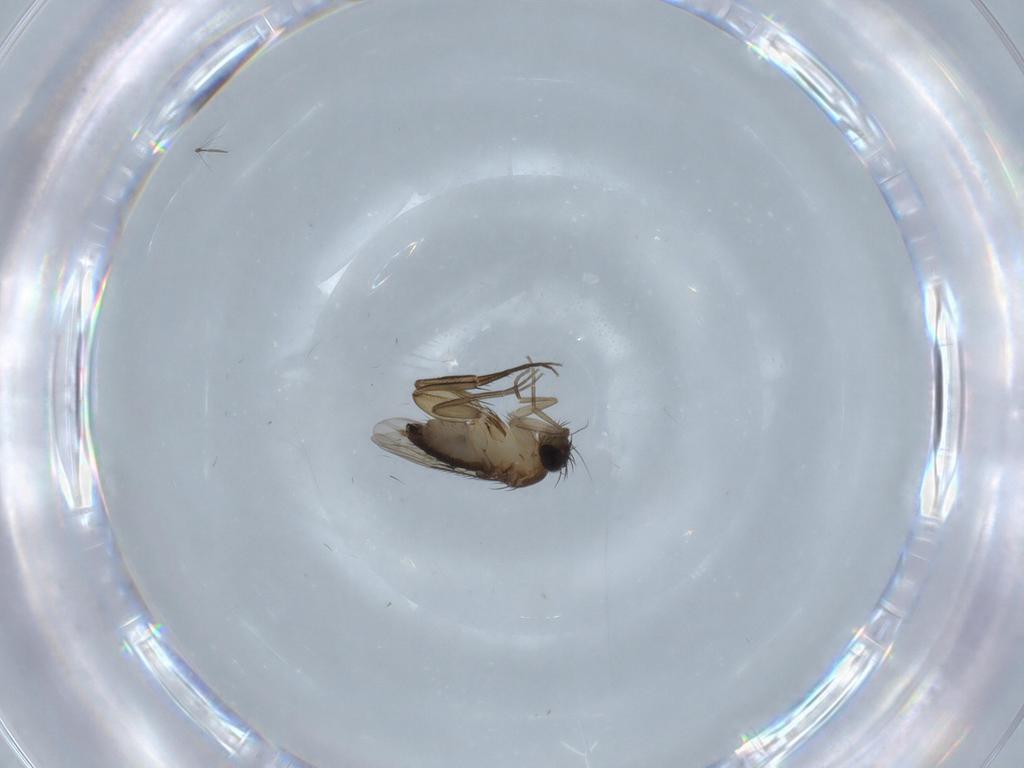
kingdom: Animalia
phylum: Arthropoda
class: Insecta
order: Diptera
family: Phoridae
